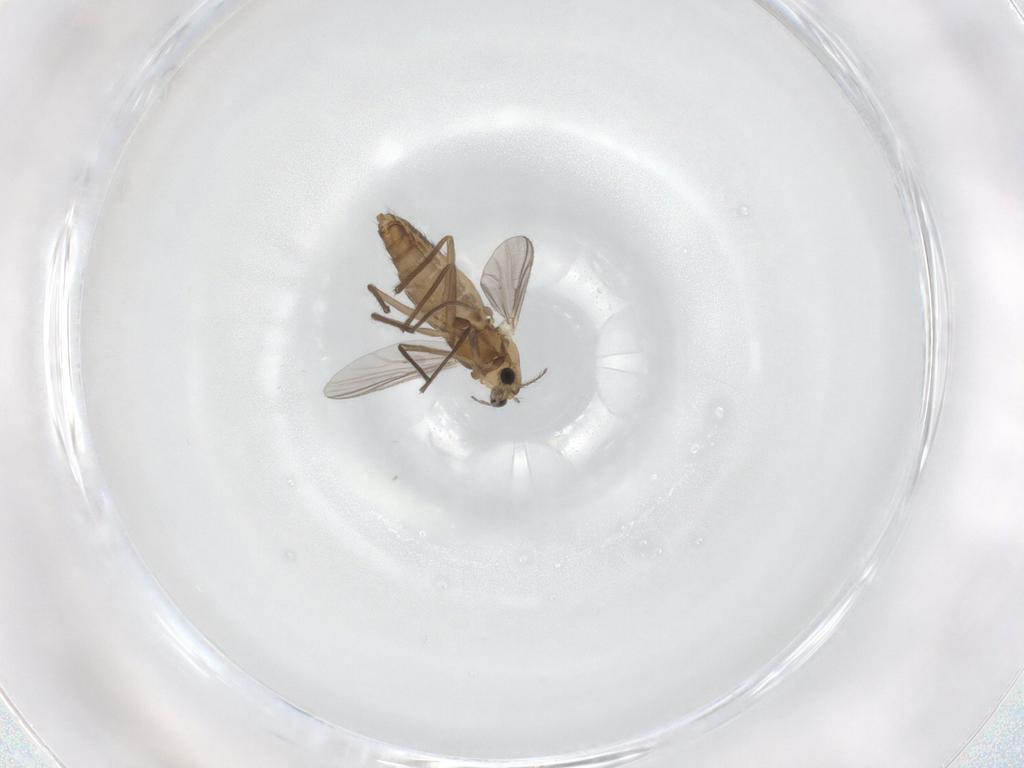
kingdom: Animalia
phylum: Arthropoda
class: Insecta
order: Diptera
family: Chironomidae
